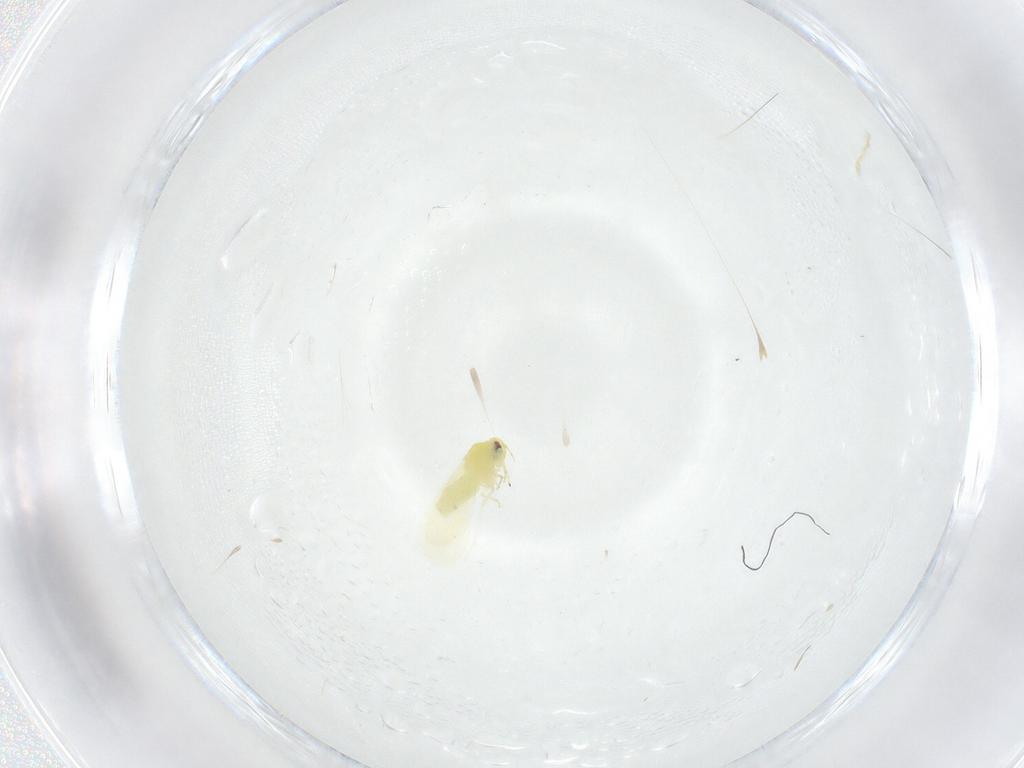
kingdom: Animalia
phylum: Arthropoda
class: Insecta
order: Hemiptera
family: Aleyrodidae
